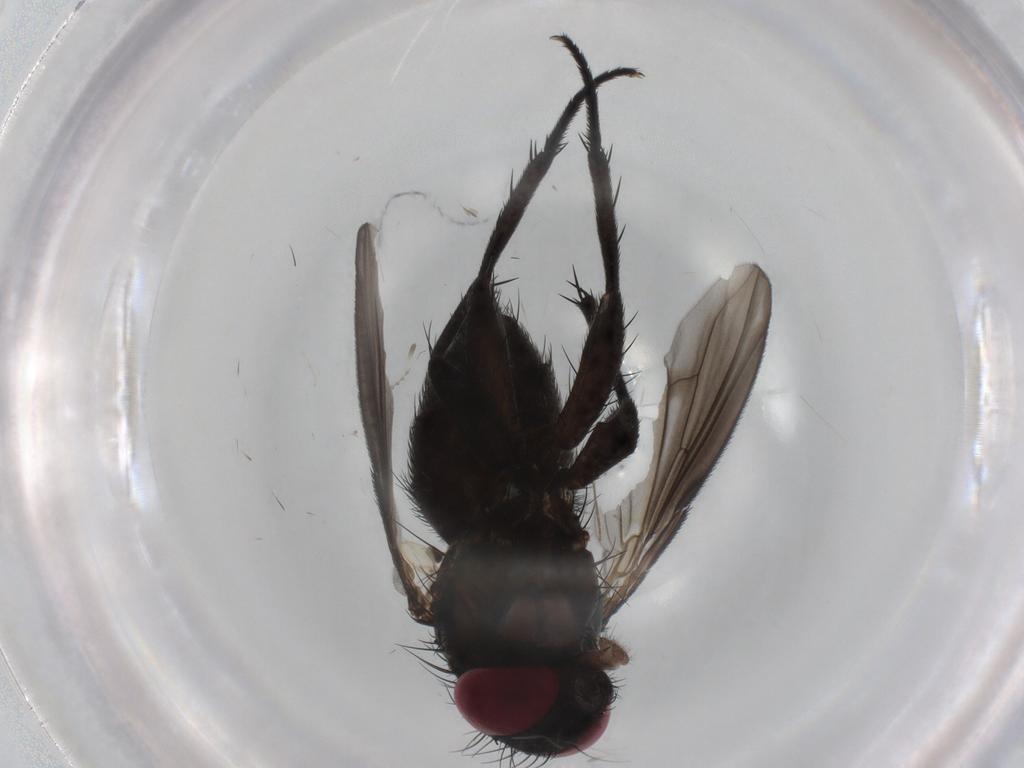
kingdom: Animalia
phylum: Arthropoda
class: Insecta
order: Diptera
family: Calliphoridae
